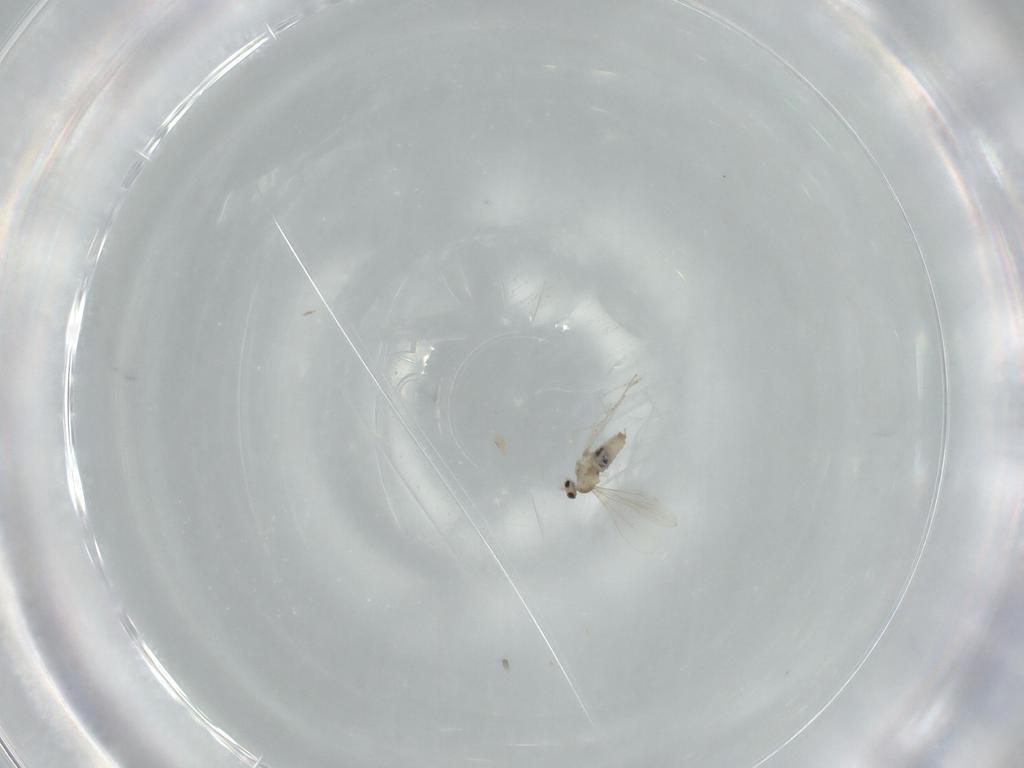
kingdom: Animalia
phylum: Arthropoda
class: Insecta
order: Diptera
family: Cecidomyiidae
